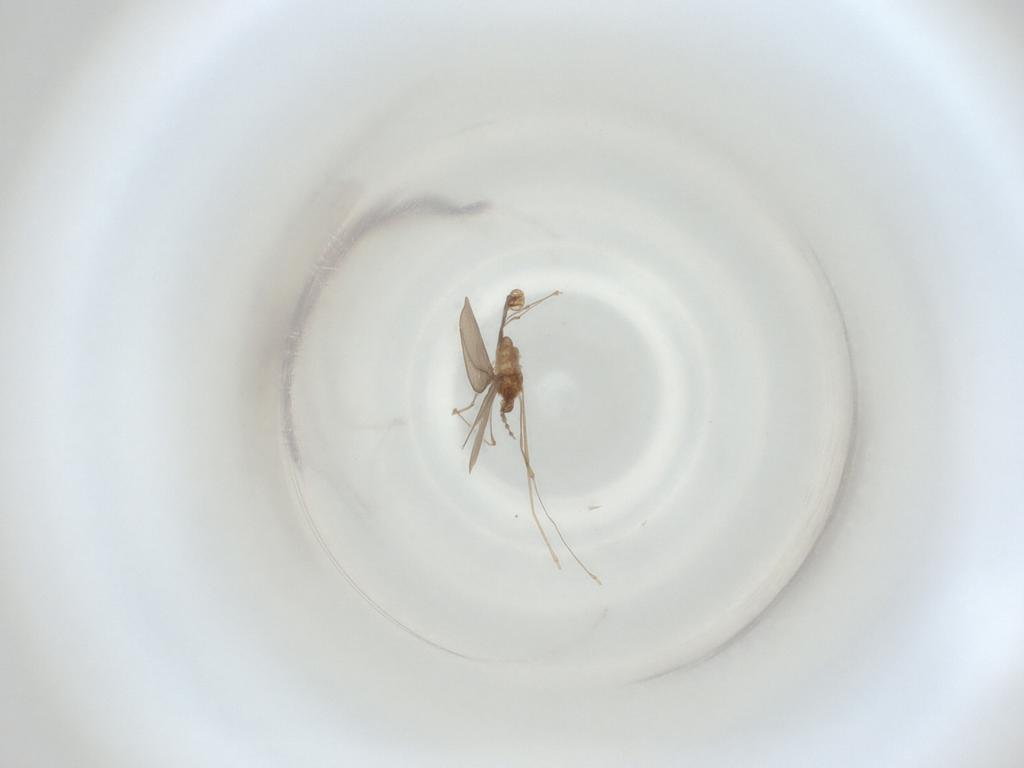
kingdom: Animalia
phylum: Arthropoda
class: Insecta
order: Diptera
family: Cecidomyiidae
